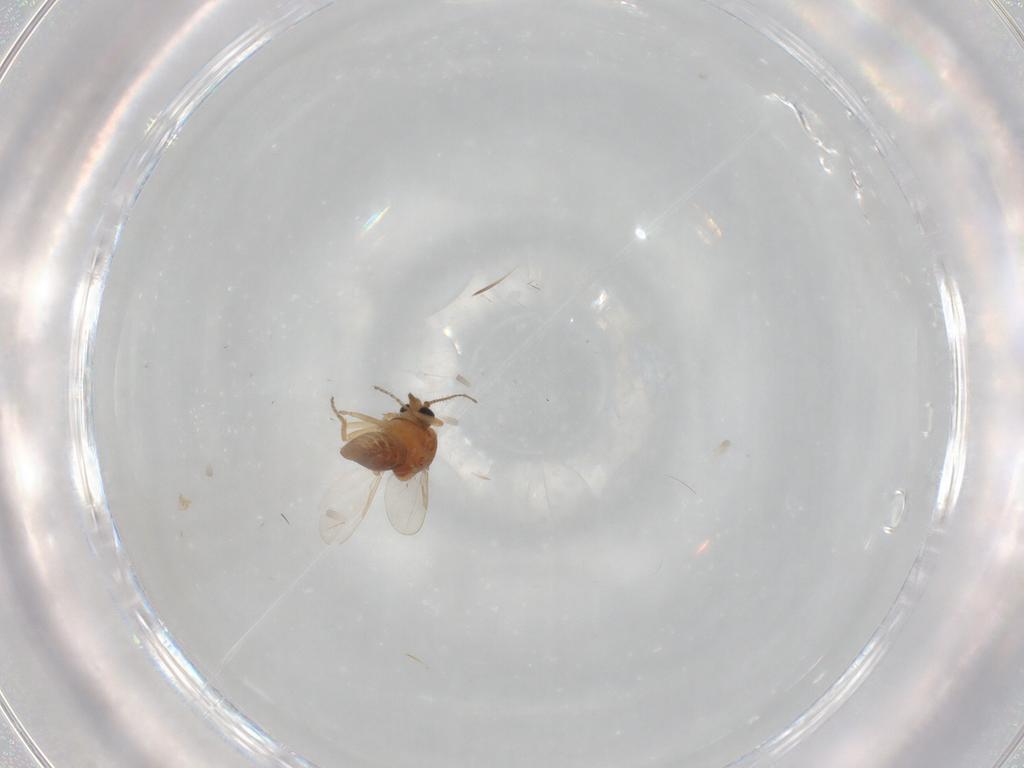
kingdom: Animalia
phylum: Arthropoda
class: Insecta
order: Diptera
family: Ceratopogonidae
